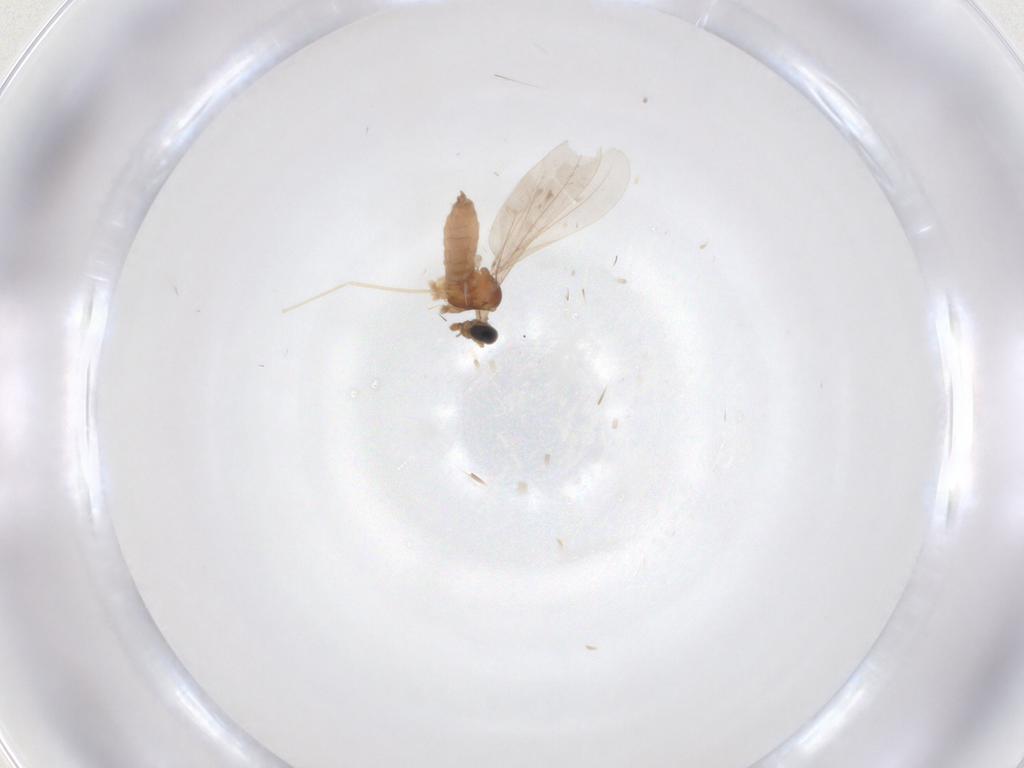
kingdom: Animalia
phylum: Arthropoda
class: Insecta
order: Diptera
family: Cecidomyiidae
